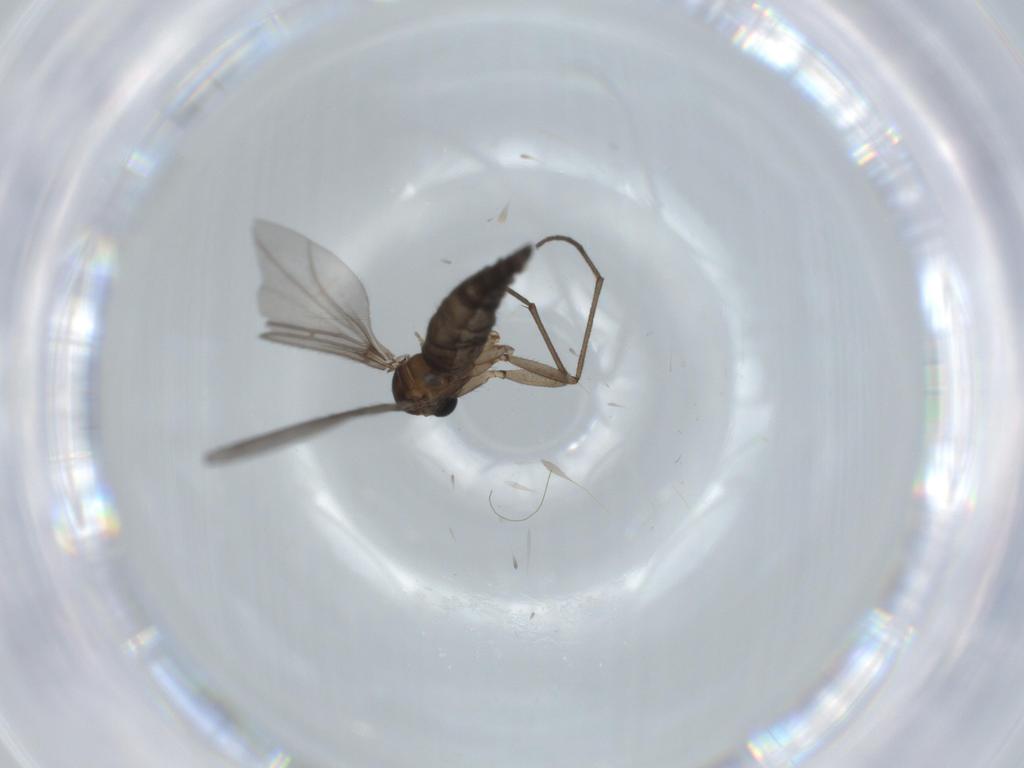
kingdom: Animalia
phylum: Arthropoda
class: Insecta
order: Diptera
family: Sciaridae
